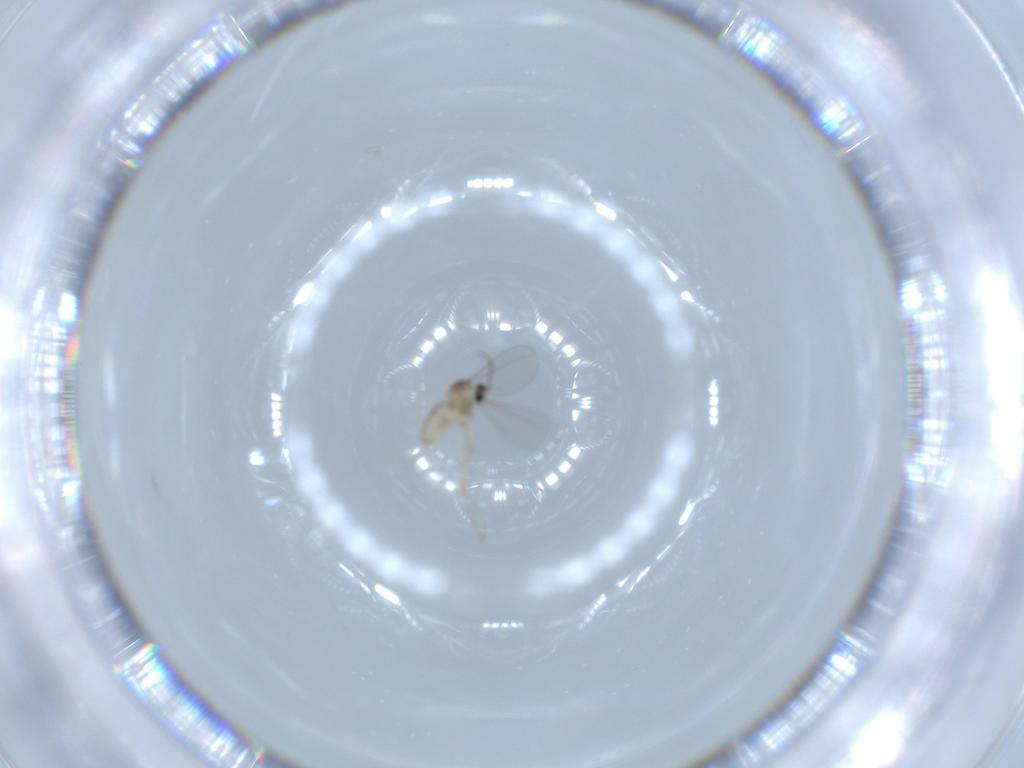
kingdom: Animalia
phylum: Arthropoda
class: Insecta
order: Diptera
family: Cecidomyiidae
